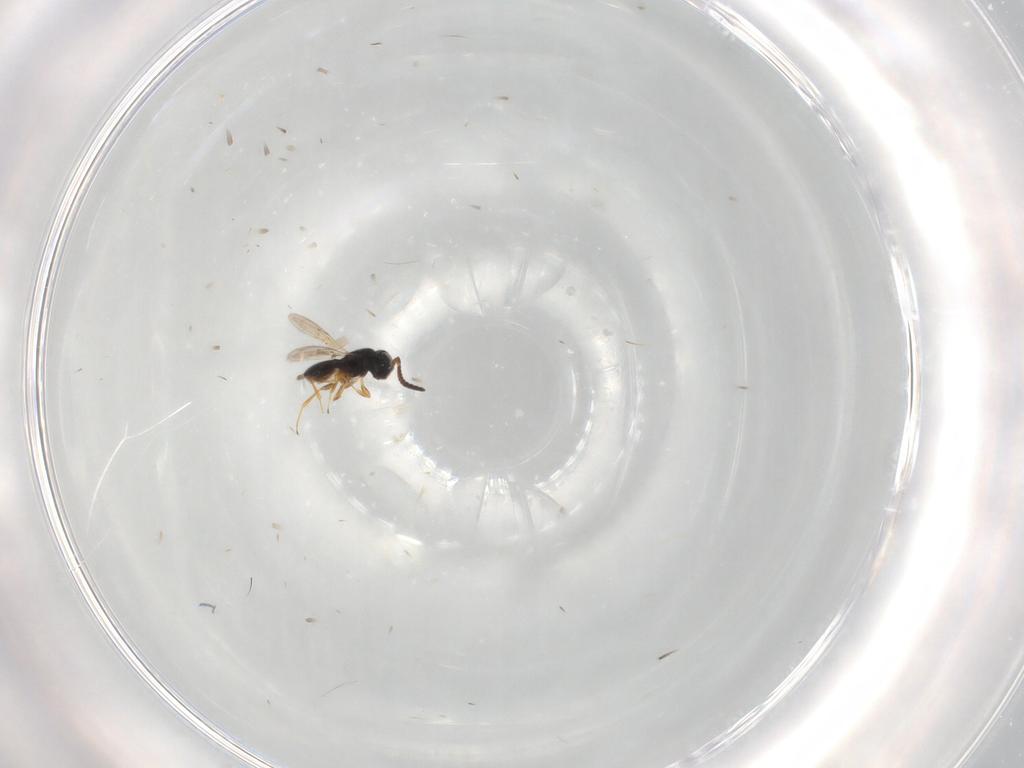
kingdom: Animalia
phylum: Arthropoda
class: Insecta
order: Hymenoptera
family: Scelionidae
